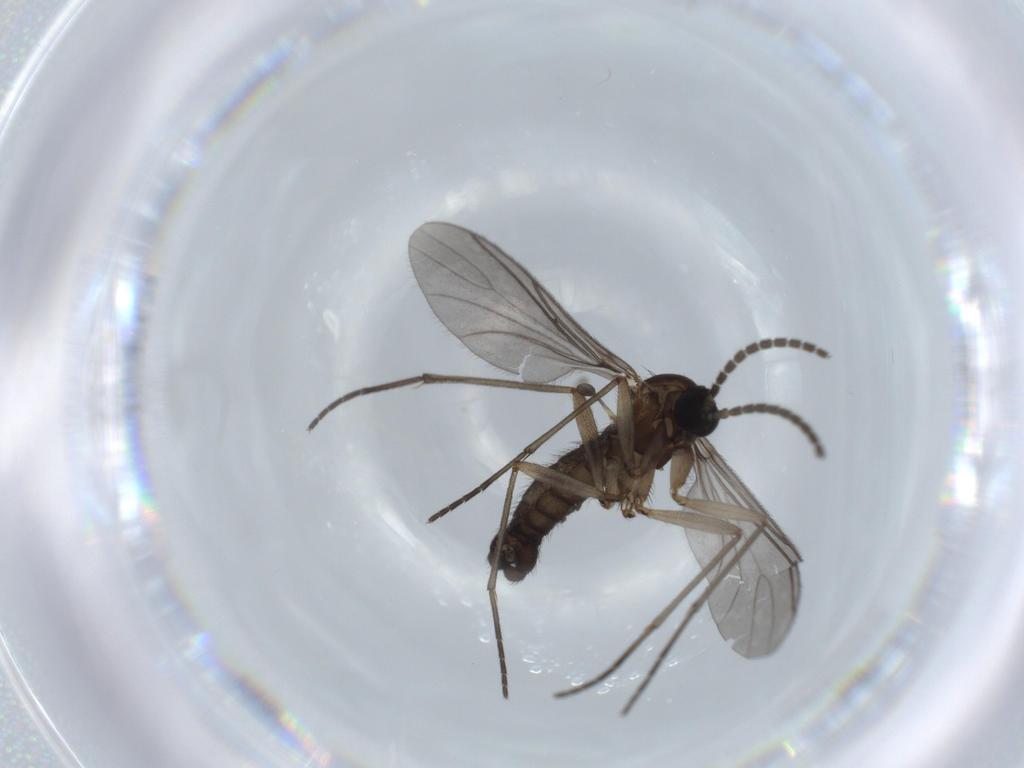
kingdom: Animalia
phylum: Arthropoda
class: Insecta
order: Diptera
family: Sciaridae
